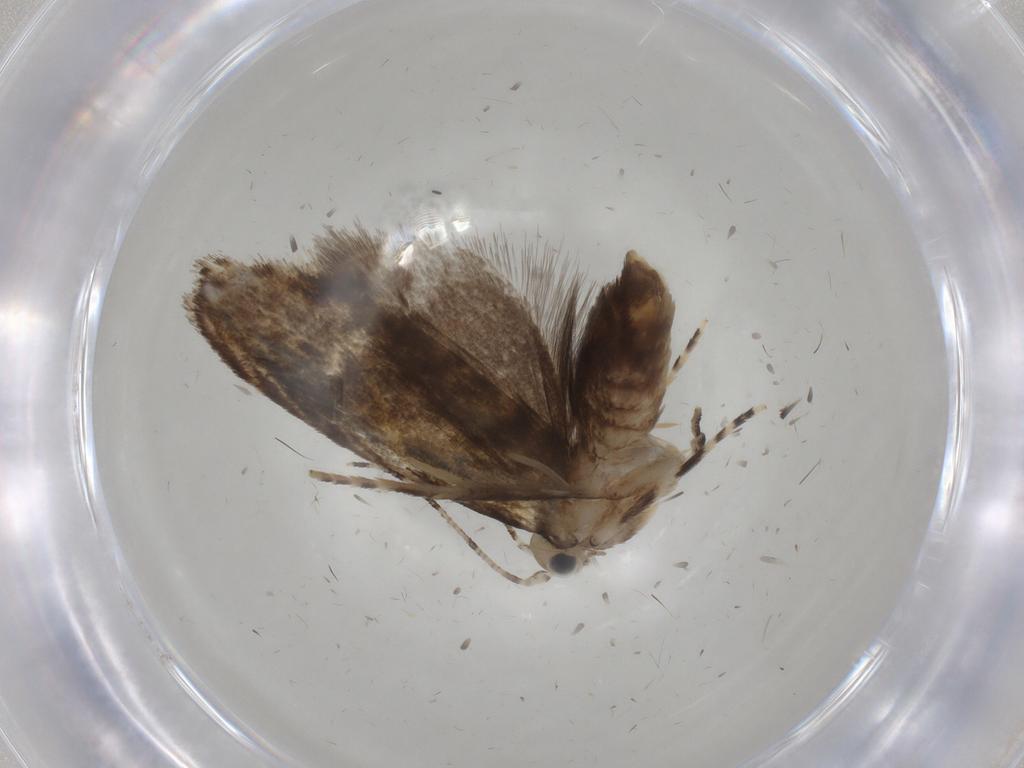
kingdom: Animalia
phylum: Arthropoda
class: Insecta
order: Lepidoptera
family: Tineidae
